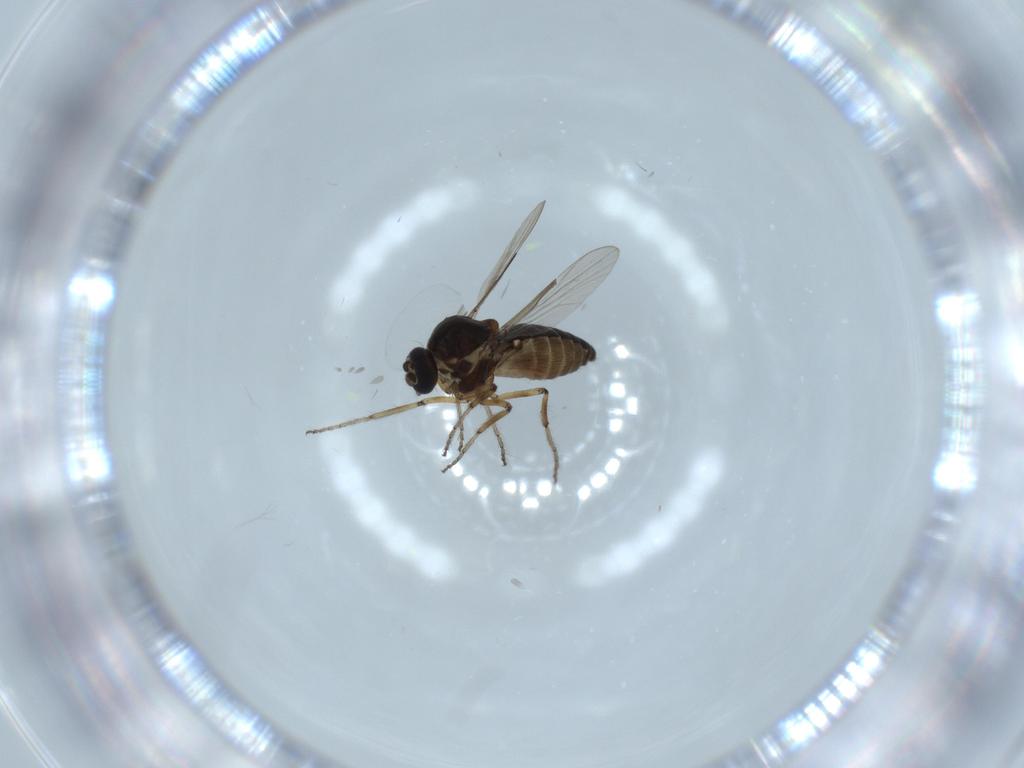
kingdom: Animalia
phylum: Arthropoda
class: Insecta
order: Diptera
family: Ceratopogonidae
